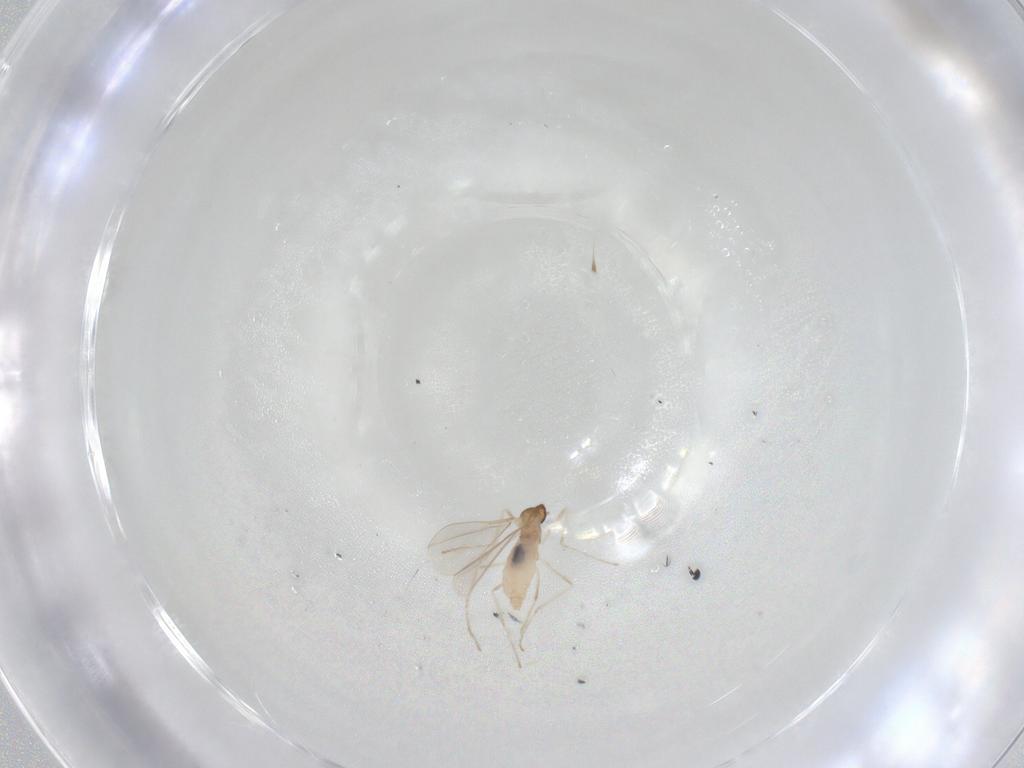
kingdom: Animalia
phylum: Arthropoda
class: Insecta
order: Diptera
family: Cecidomyiidae
